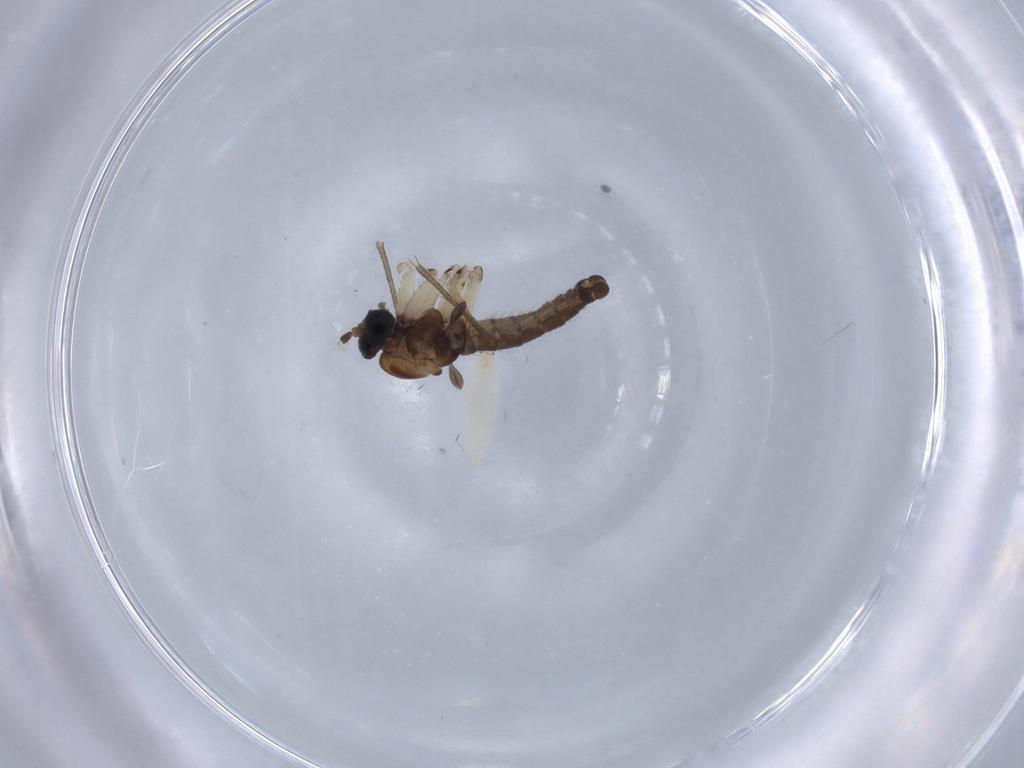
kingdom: Animalia
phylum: Arthropoda
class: Insecta
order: Diptera
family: Sciaridae
